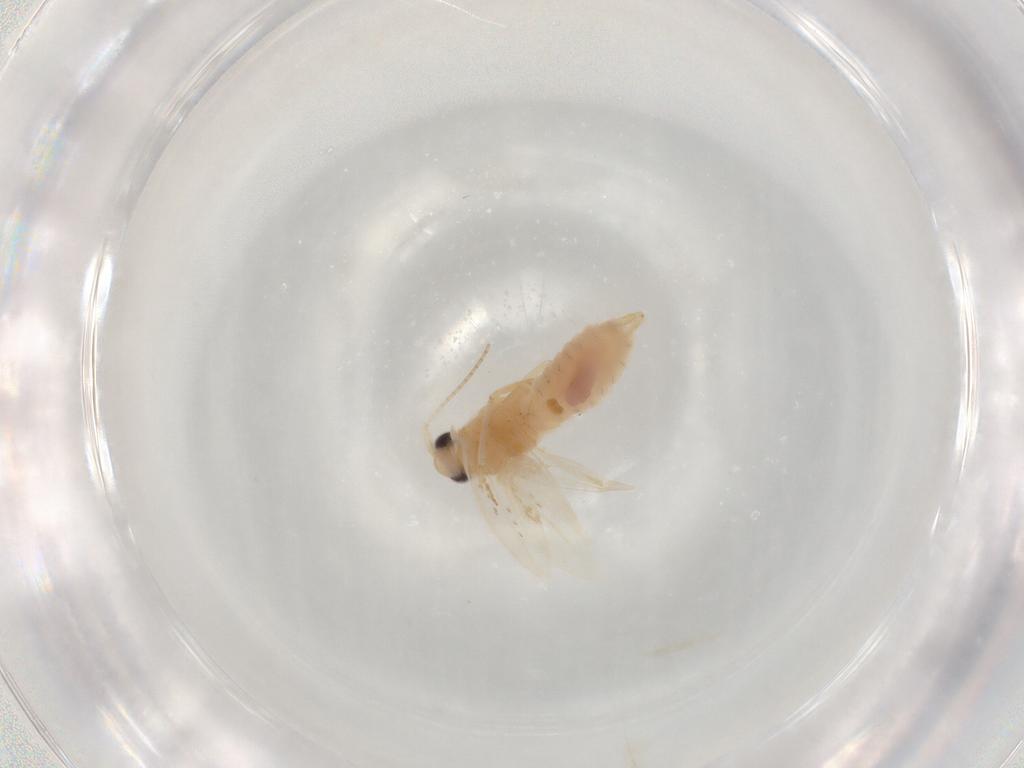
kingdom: Animalia
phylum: Arthropoda
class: Insecta
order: Lepidoptera
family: Bucculatricidae
